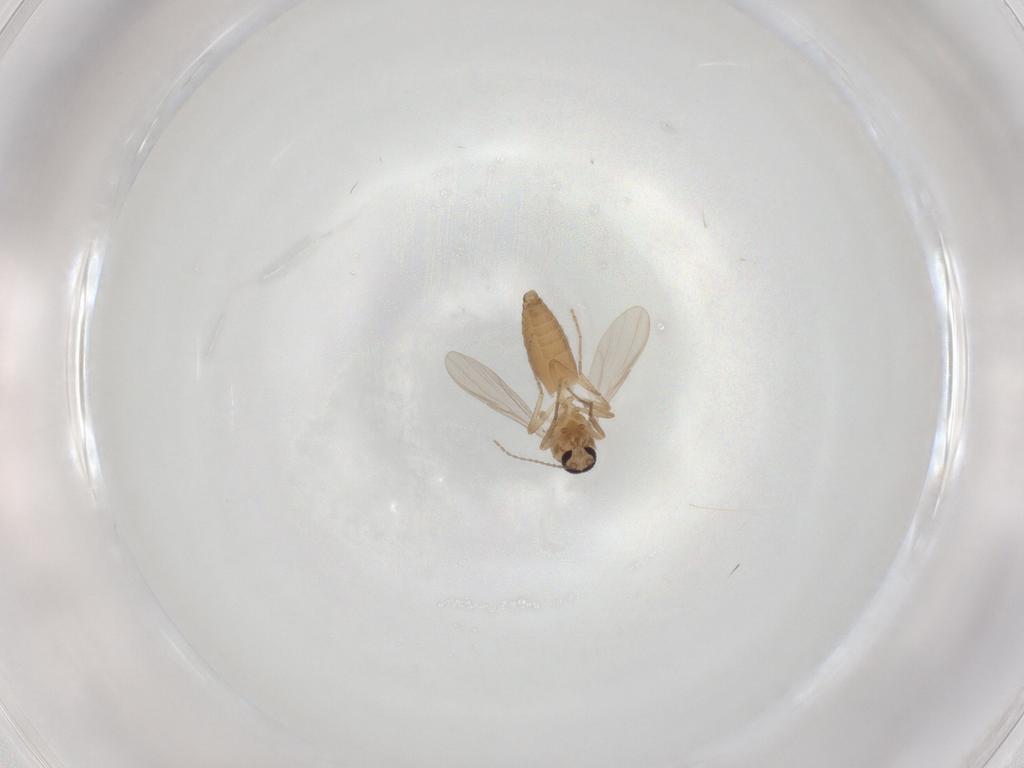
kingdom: Animalia
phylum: Arthropoda
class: Insecta
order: Diptera
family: Ceratopogonidae
